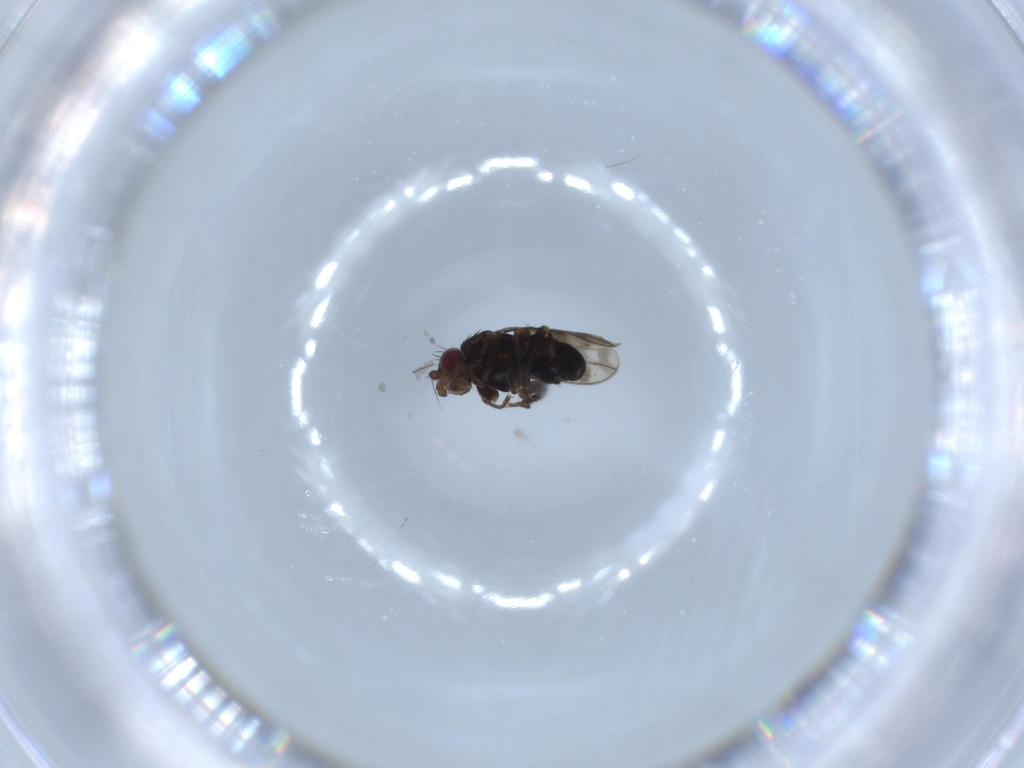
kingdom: Animalia
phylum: Arthropoda
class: Insecta
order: Diptera
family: Sphaeroceridae
